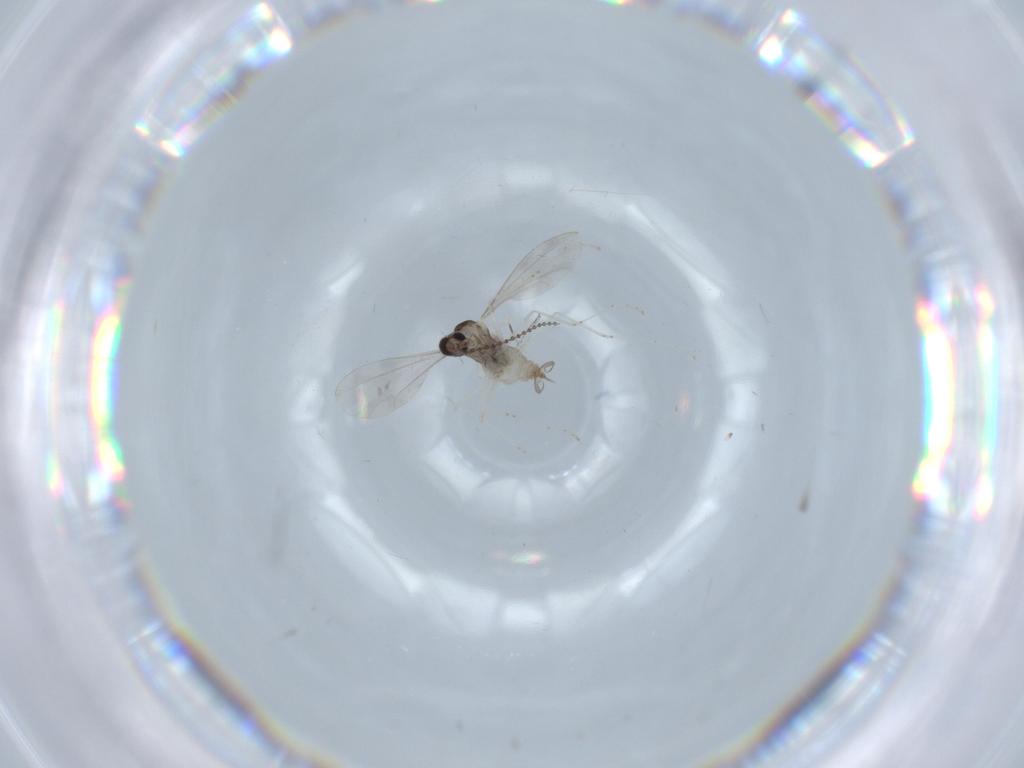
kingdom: Animalia
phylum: Arthropoda
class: Insecta
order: Diptera
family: Cecidomyiidae
